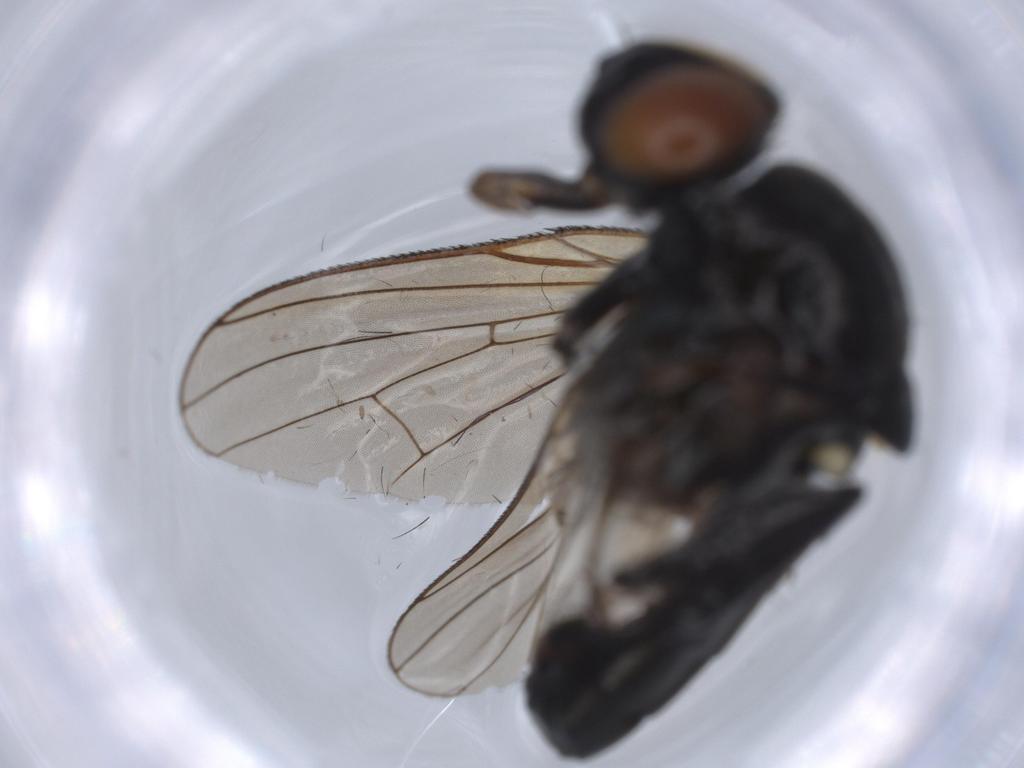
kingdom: Animalia
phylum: Arthropoda
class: Insecta
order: Diptera
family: Sciaridae
